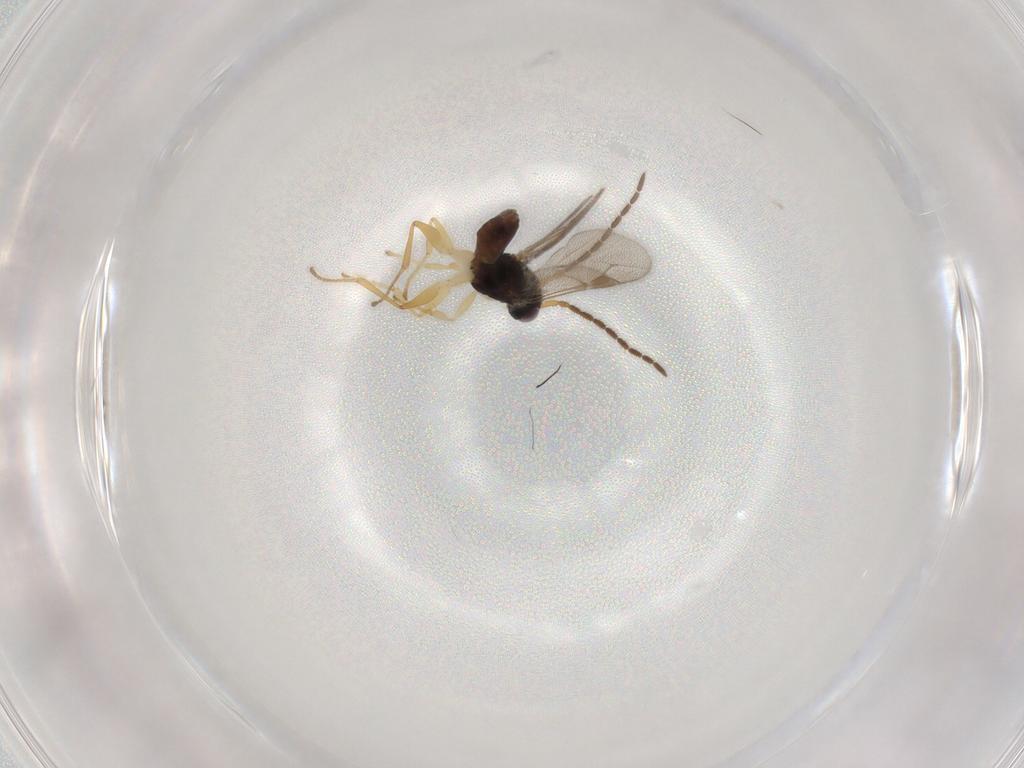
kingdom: Animalia
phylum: Arthropoda
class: Insecta
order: Hymenoptera
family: Dryinidae
